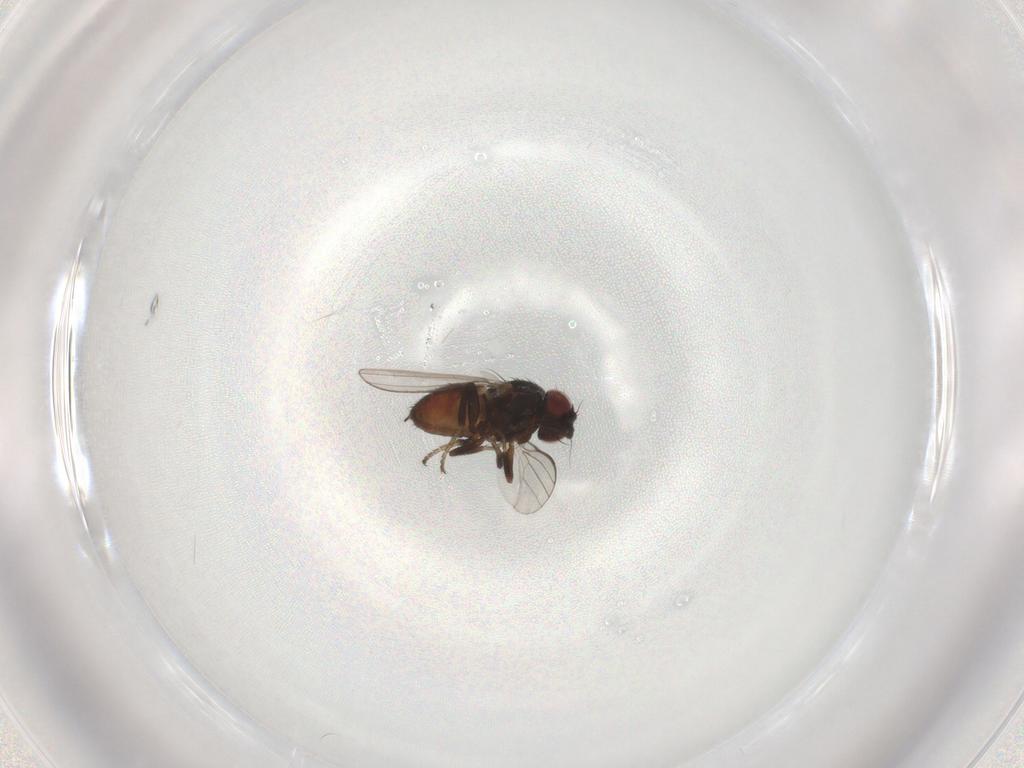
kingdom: Animalia
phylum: Arthropoda
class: Insecta
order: Diptera
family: Milichiidae
